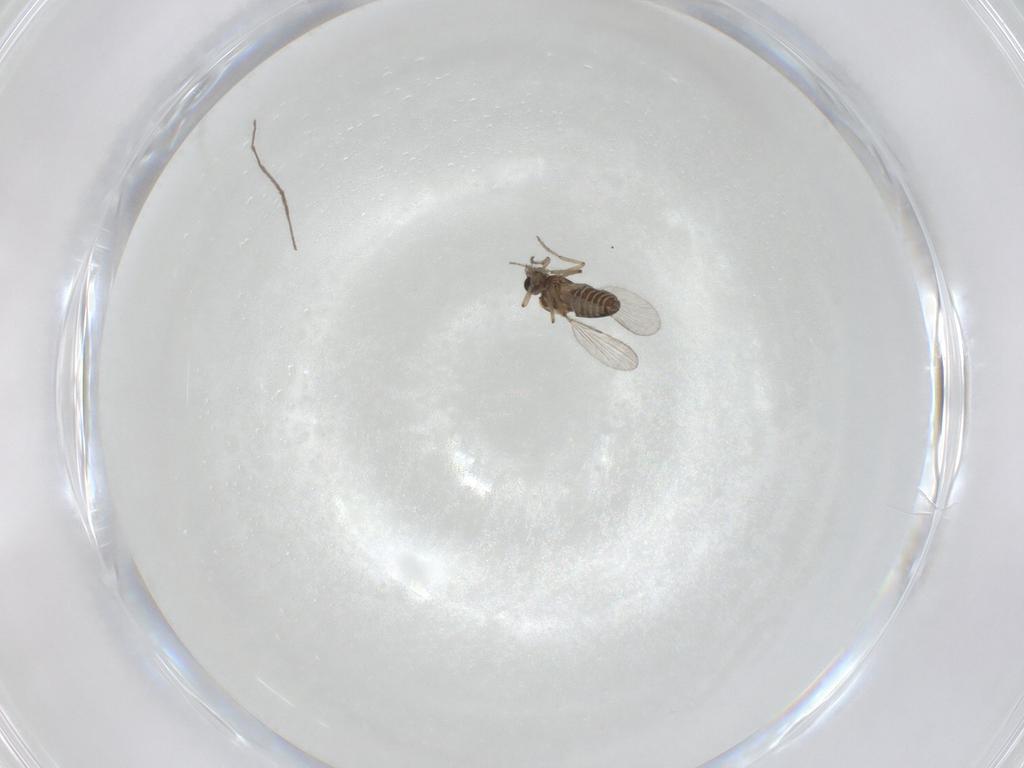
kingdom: Animalia
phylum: Arthropoda
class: Insecta
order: Diptera
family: Ceratopogonidae
